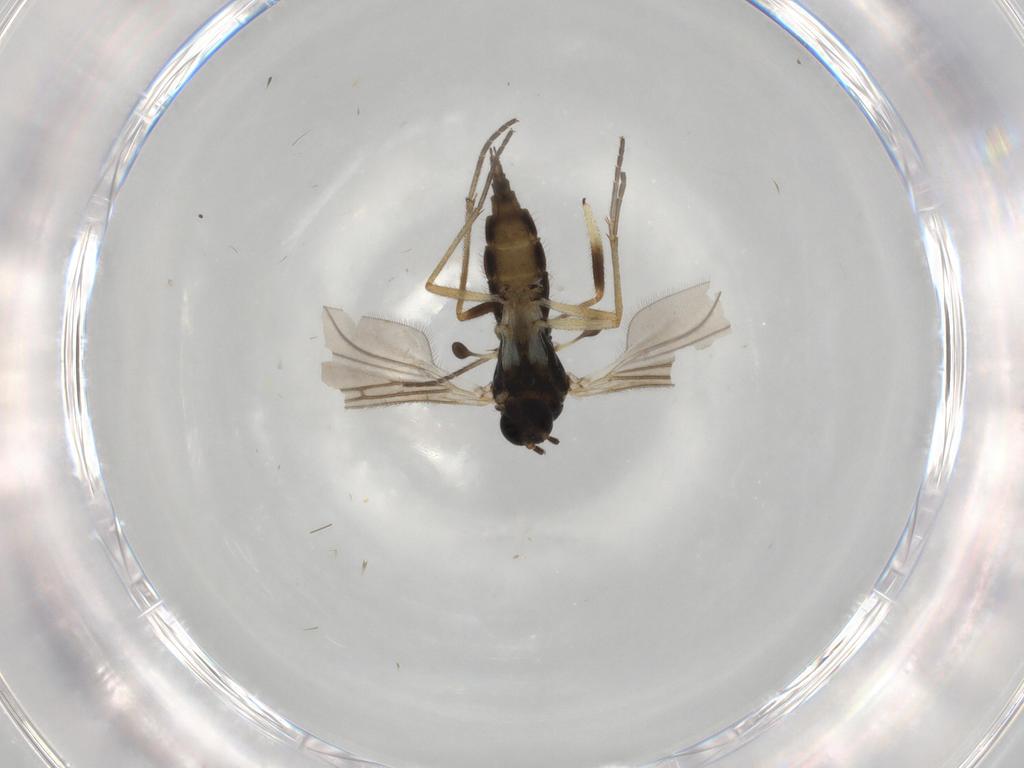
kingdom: Animalia
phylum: Arthropoda
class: Insecta
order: Diptera
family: Sciaridae
